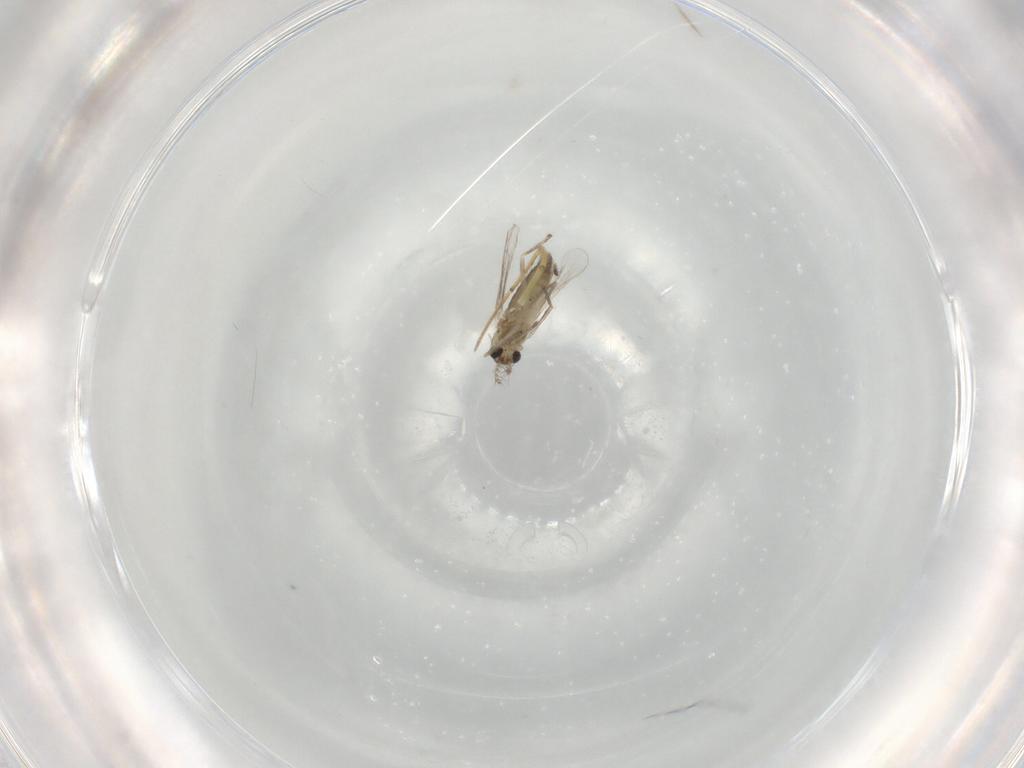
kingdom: Animalia
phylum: Arthropoda
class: Insecta
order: Diptera
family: Chironomidae
